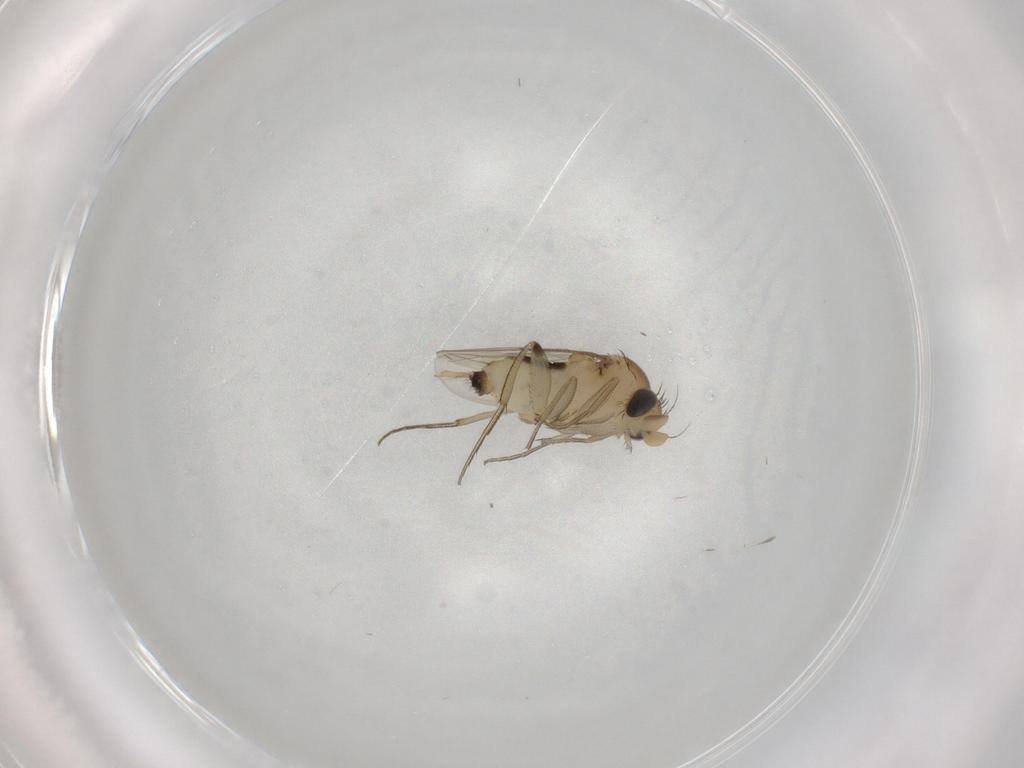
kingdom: Animalia
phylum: Arthropoda
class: Insecta
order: Diptera
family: Phoridae
